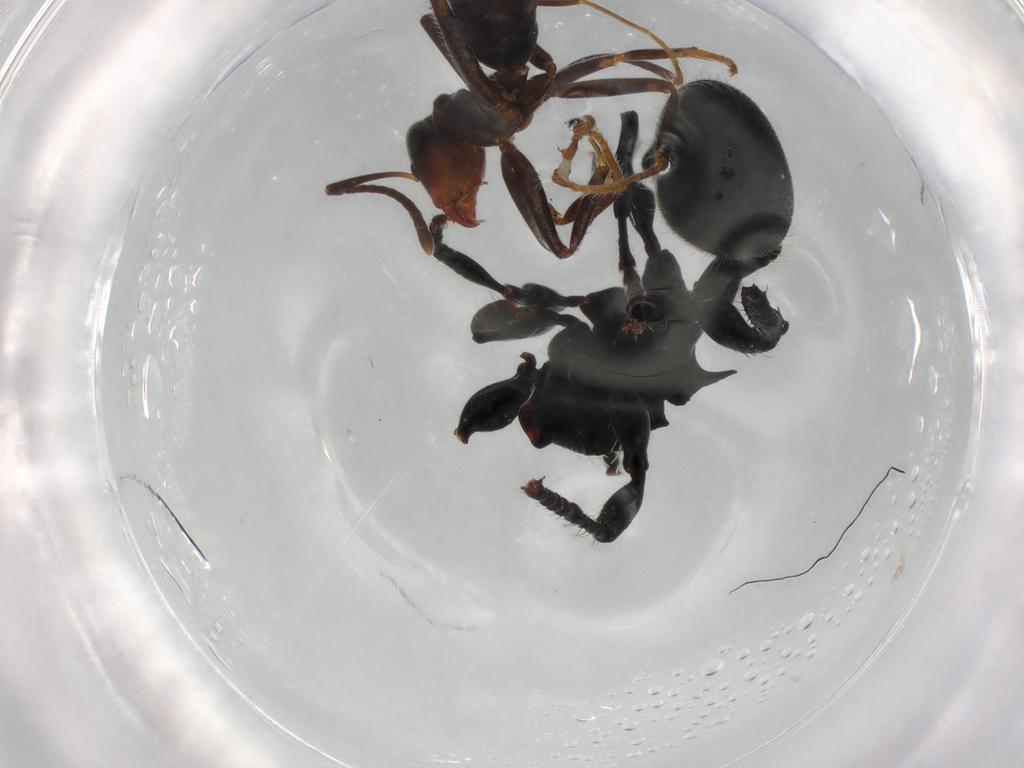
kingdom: Animalia
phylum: Arthropoda
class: Insecta
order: Hymenoptera
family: Formicidae
